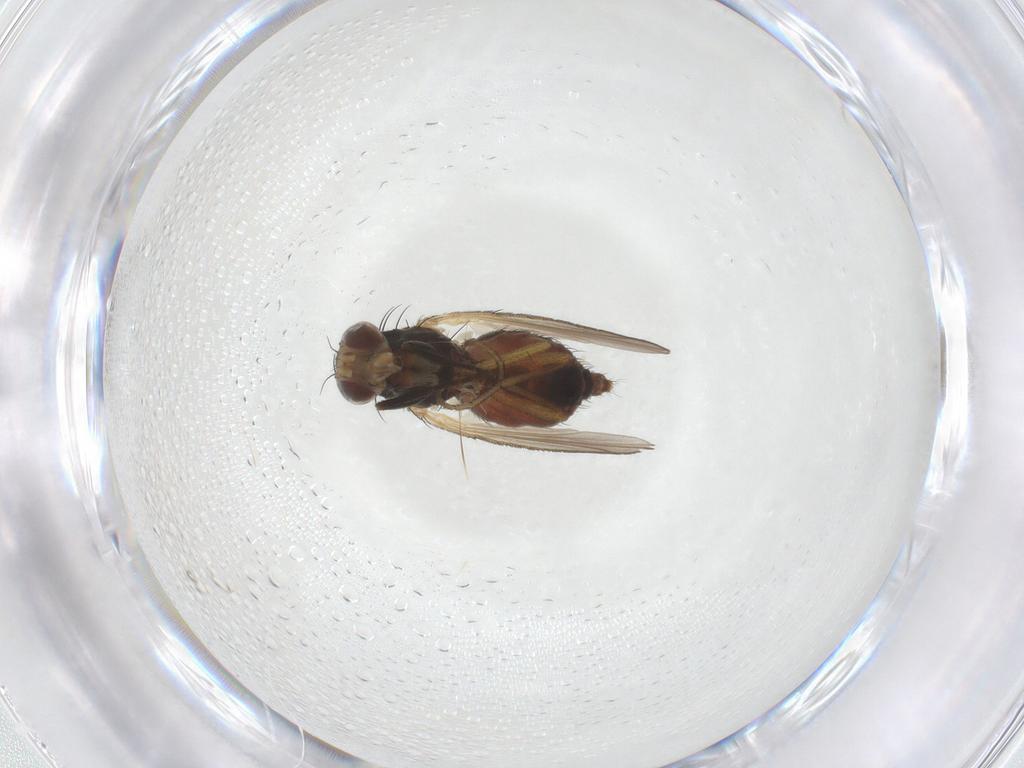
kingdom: Animalia
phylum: Arthropoda
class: Insecta
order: Diptera
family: Heleomyzidae
